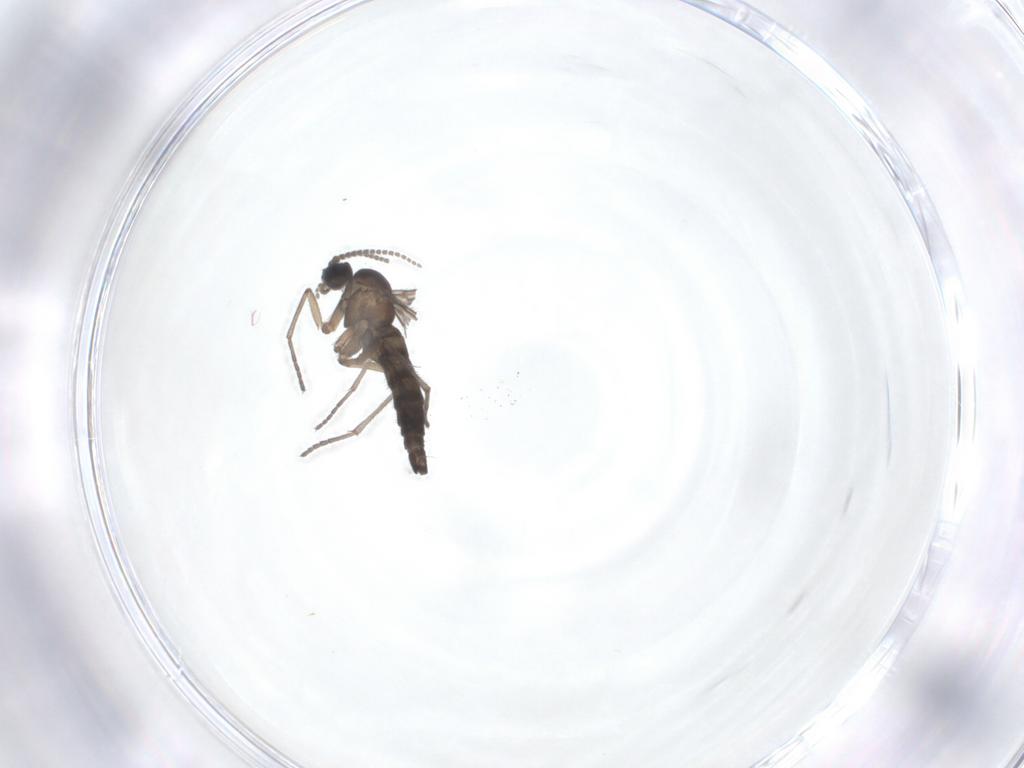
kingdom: Animalia
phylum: Arthropoda
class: Insecta
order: Diptera
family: Sciaridae
